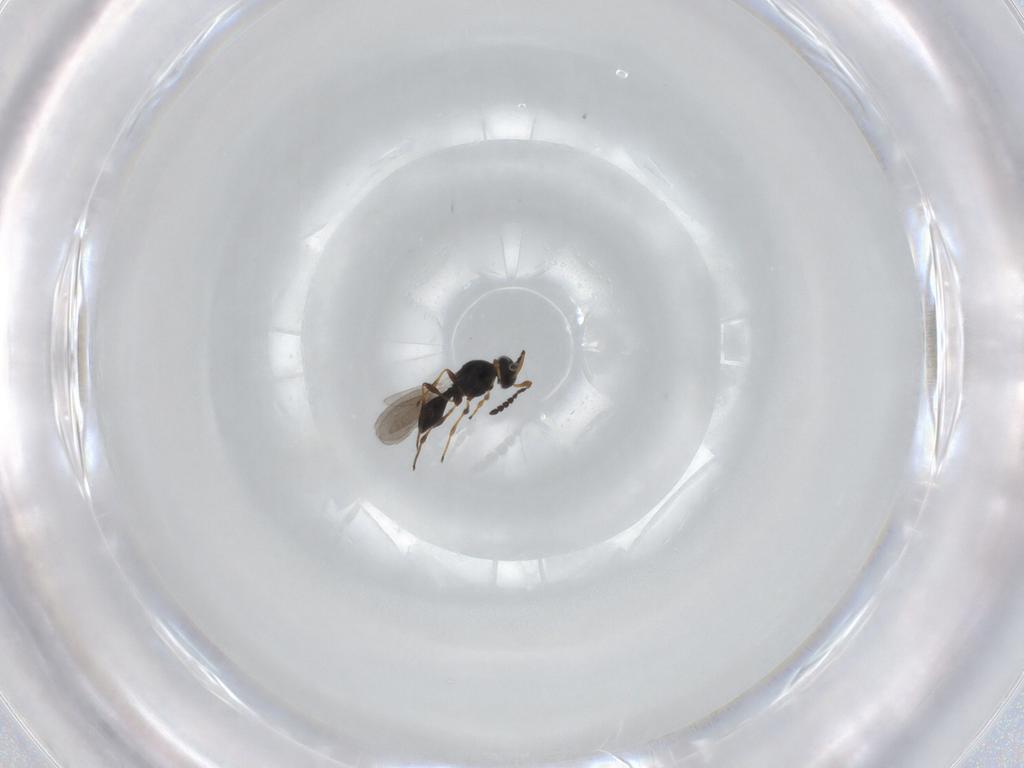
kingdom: Animalia
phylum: Arthropoda
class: Insecta
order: Hymenoptera
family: Platygastridae
